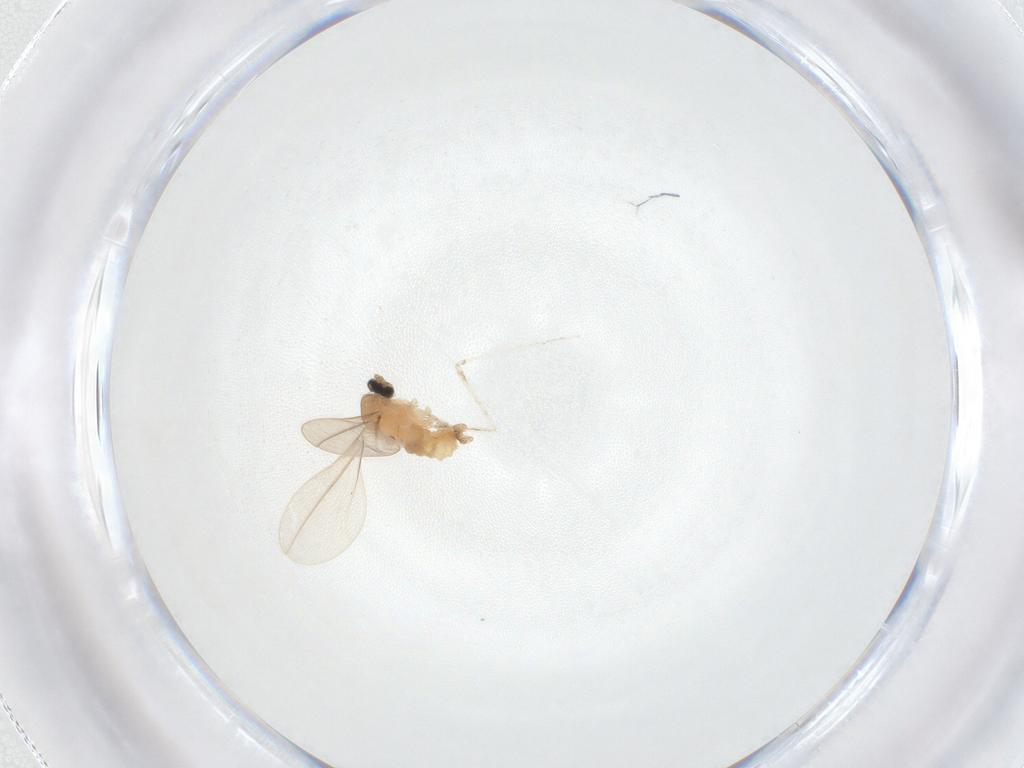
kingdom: Animalia
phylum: Arthropoda
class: Insecta
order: Diptera
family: Cecidomyiidae
